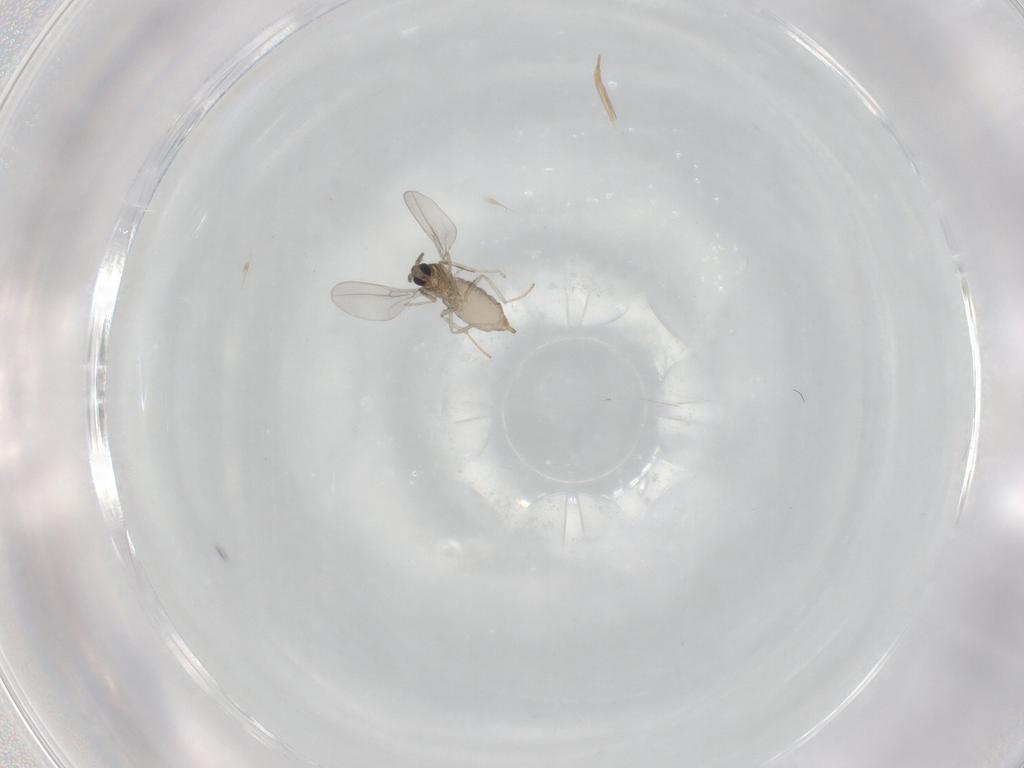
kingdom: Animalia
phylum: Arthropoda
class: Insecta
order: Diptera
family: Cecidomyiidae
